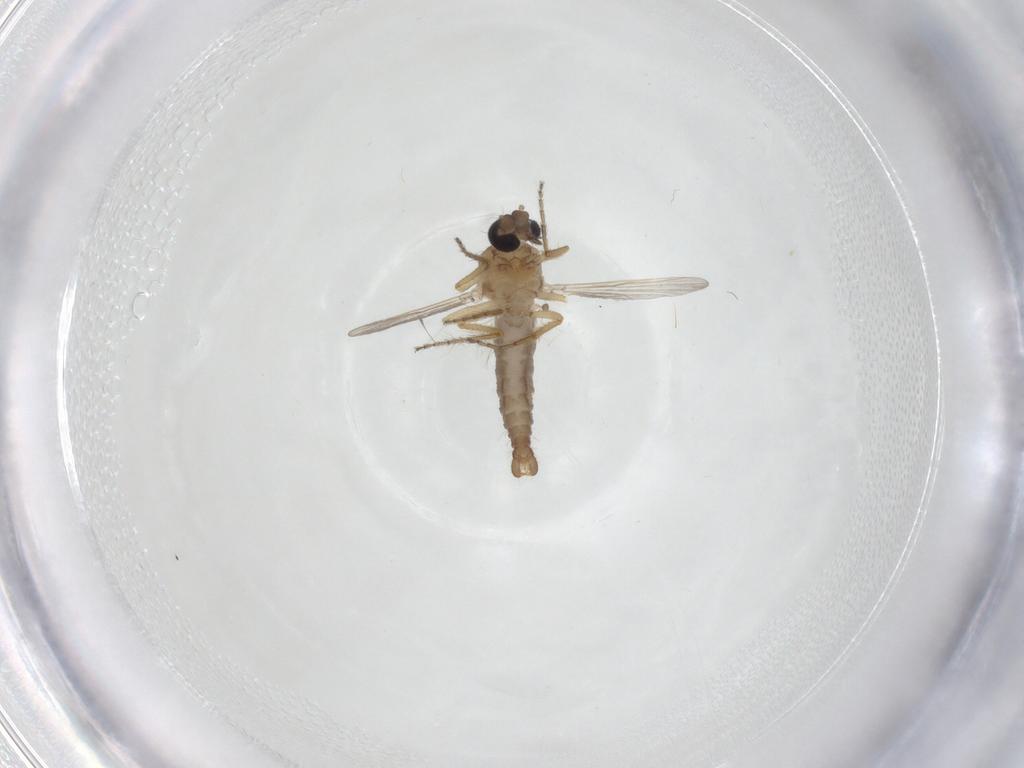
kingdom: Animalia
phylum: Arthropoda
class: Insecta
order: Diptera
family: Ceratopogonidae
